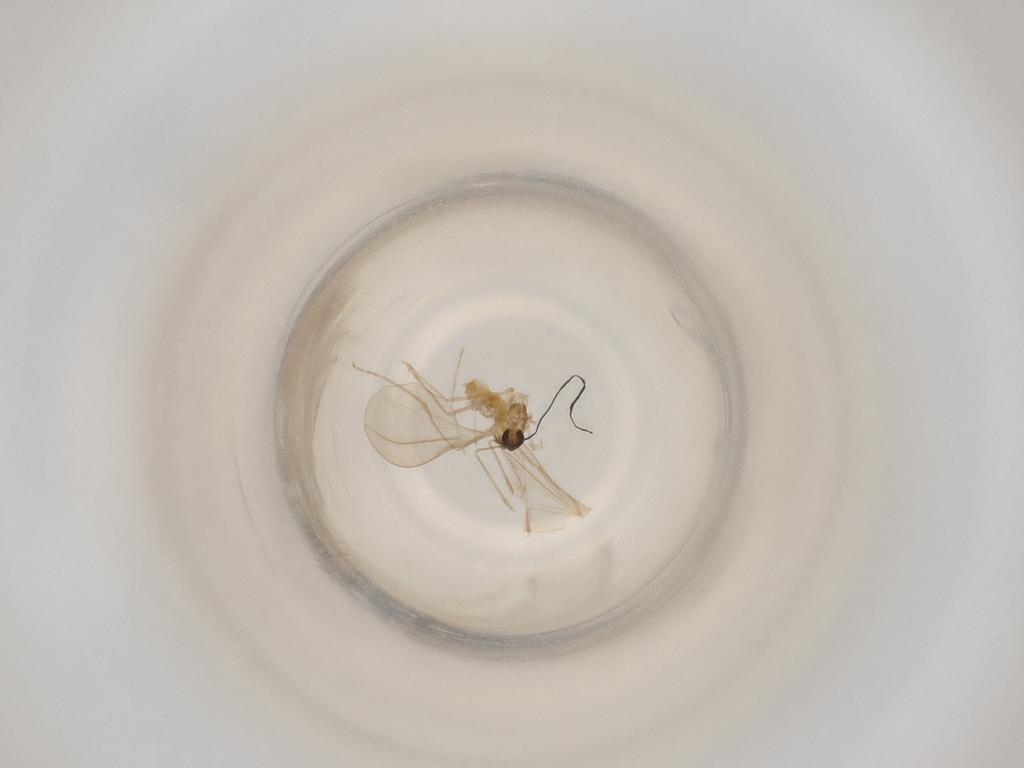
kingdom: Animalia
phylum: Arthropoda
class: Insecta
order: Diptera
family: Cecidomyiidae
